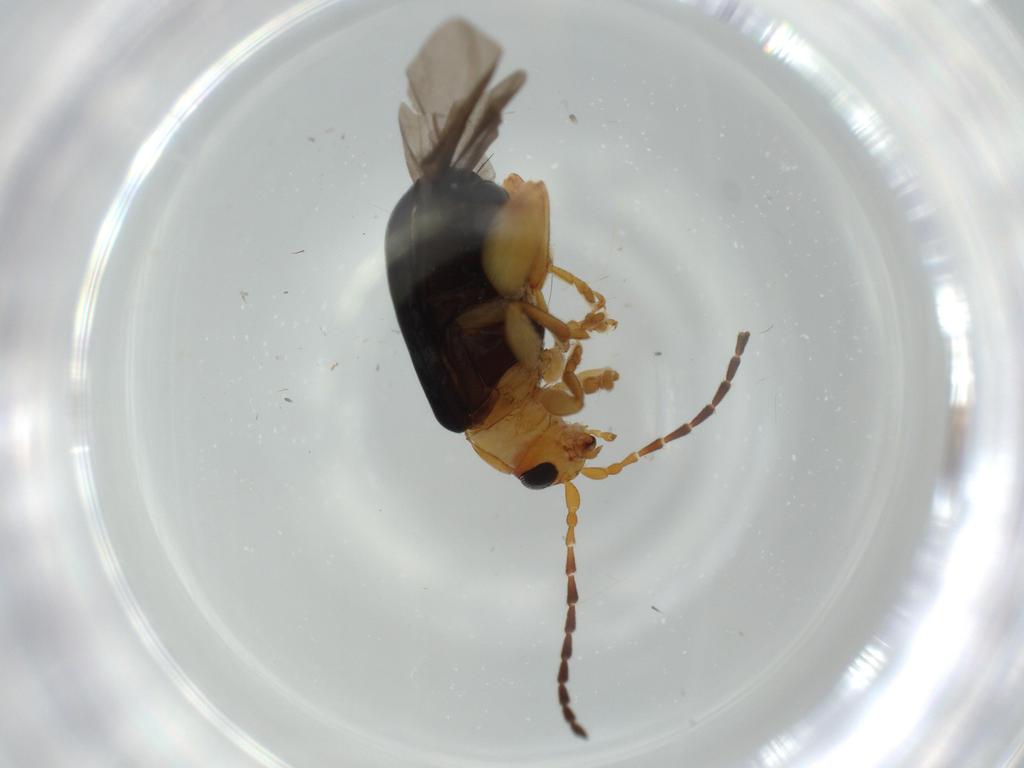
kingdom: Animalia
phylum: Arthropoda
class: Insecta
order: Coleoptera
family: Chrysomelidae
